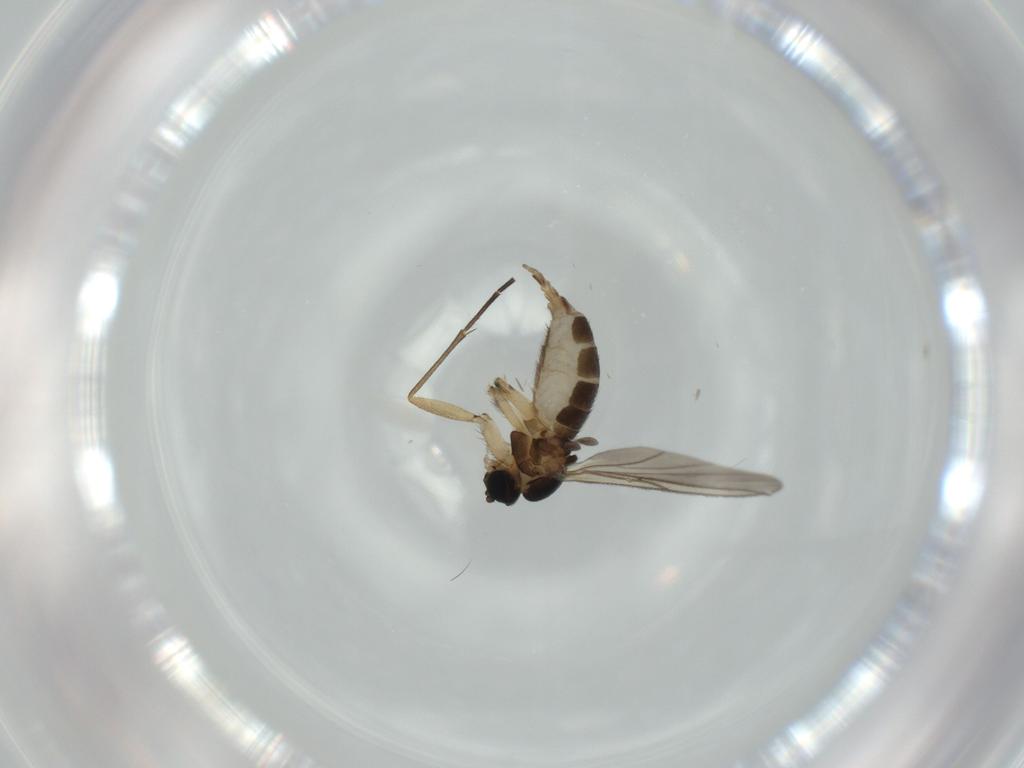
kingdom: Animalia
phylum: Arthropoda
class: Insecta
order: Diptera
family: Sciaridae
